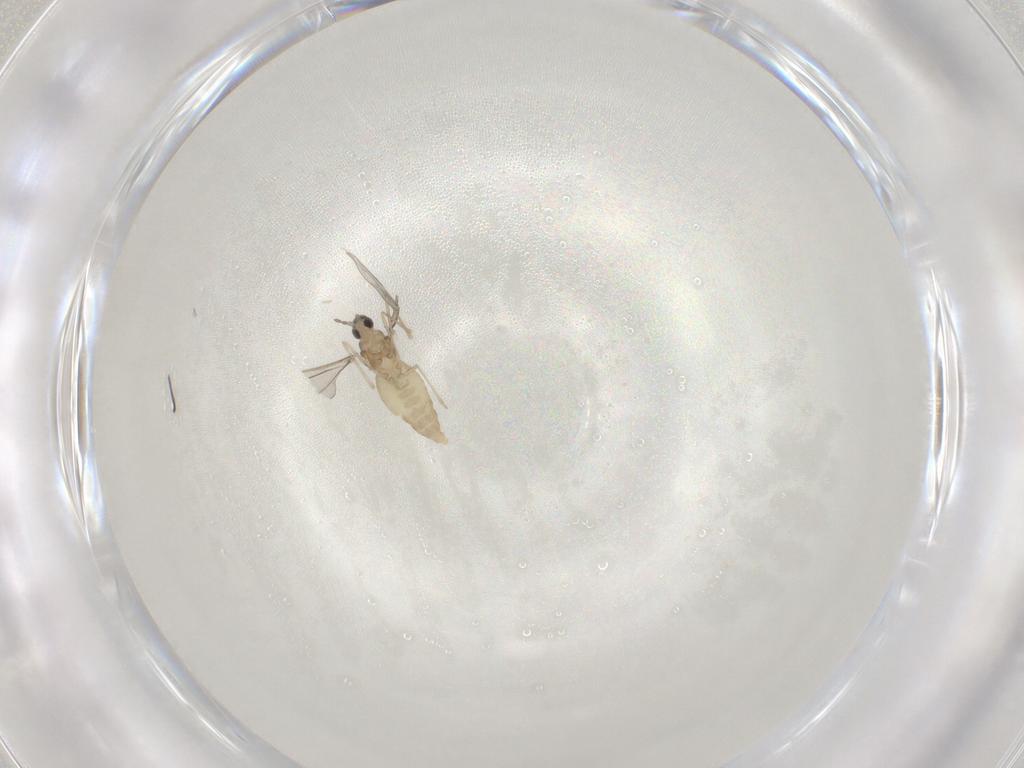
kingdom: Animalia
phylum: Arthropoda
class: Insecta
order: Diptera
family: Cecidomyiidae
